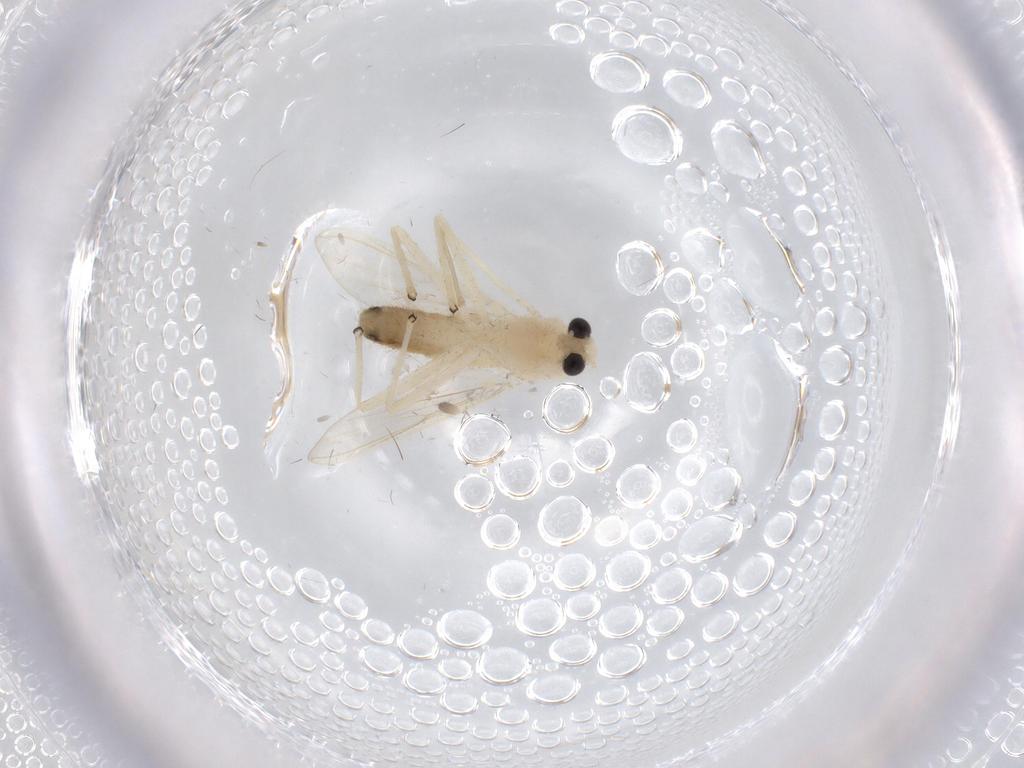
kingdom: Animalia
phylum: Arthropoda
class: Insecta
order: Diptera
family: Chironomidae
